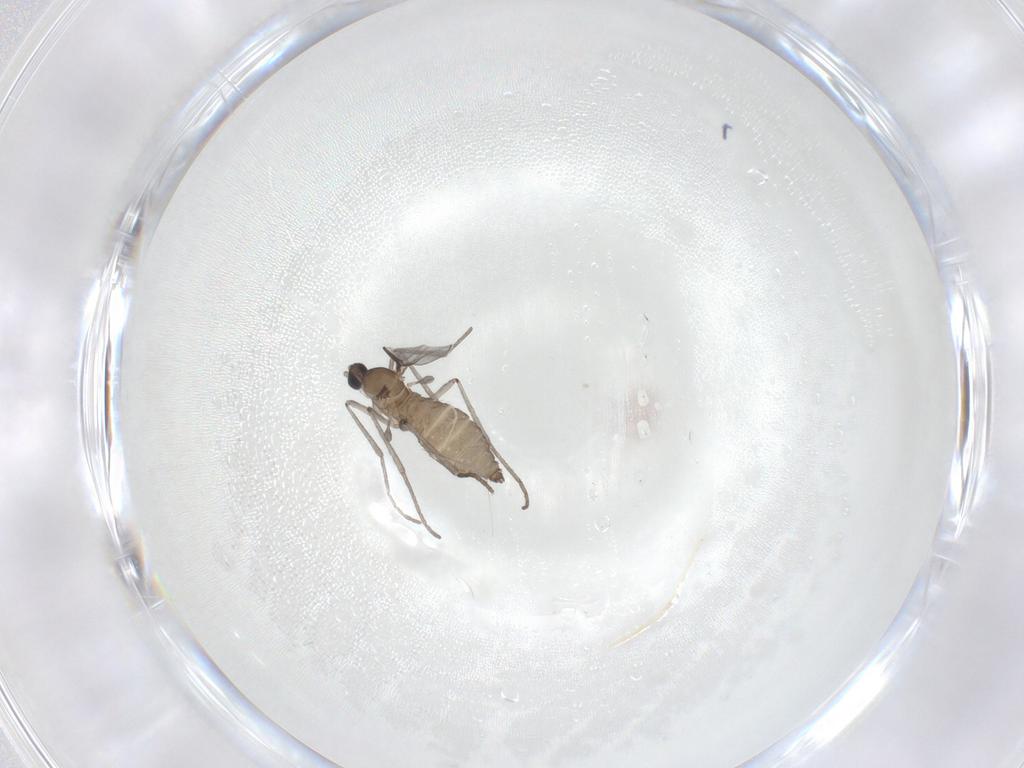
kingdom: Animalia
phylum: Arthropoda
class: Insecta
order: Diptera
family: Cecidomyiidae
